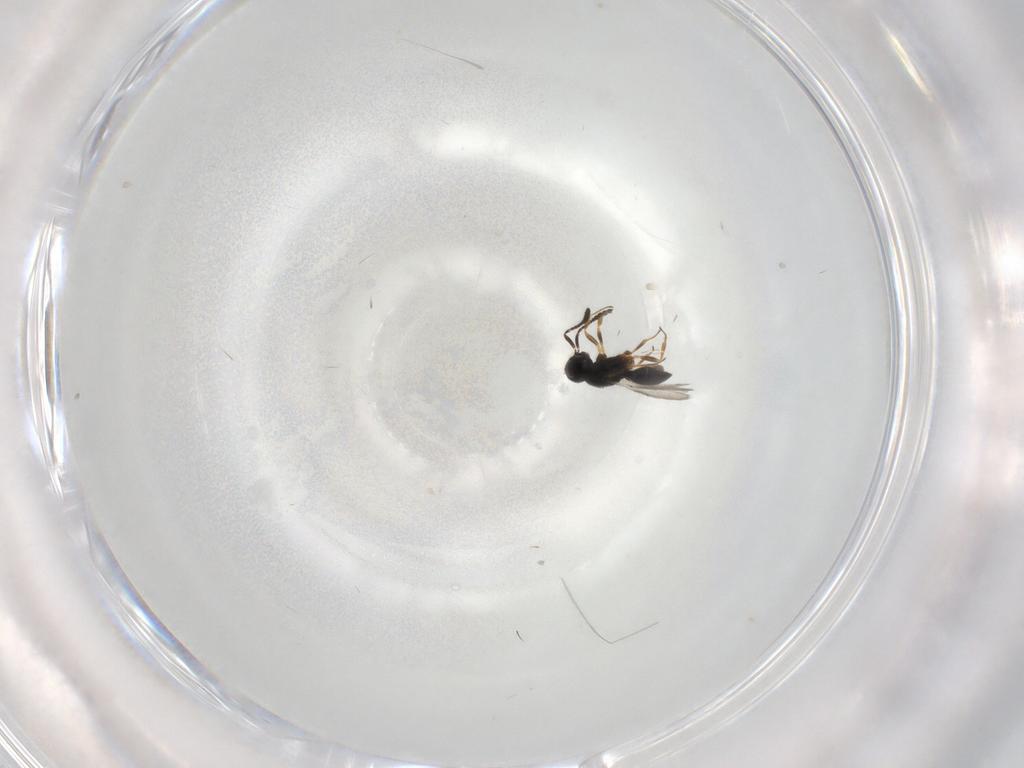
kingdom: Animalia
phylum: Arthropoda
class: Insecta
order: Hymenoptera
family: Scelionidae
